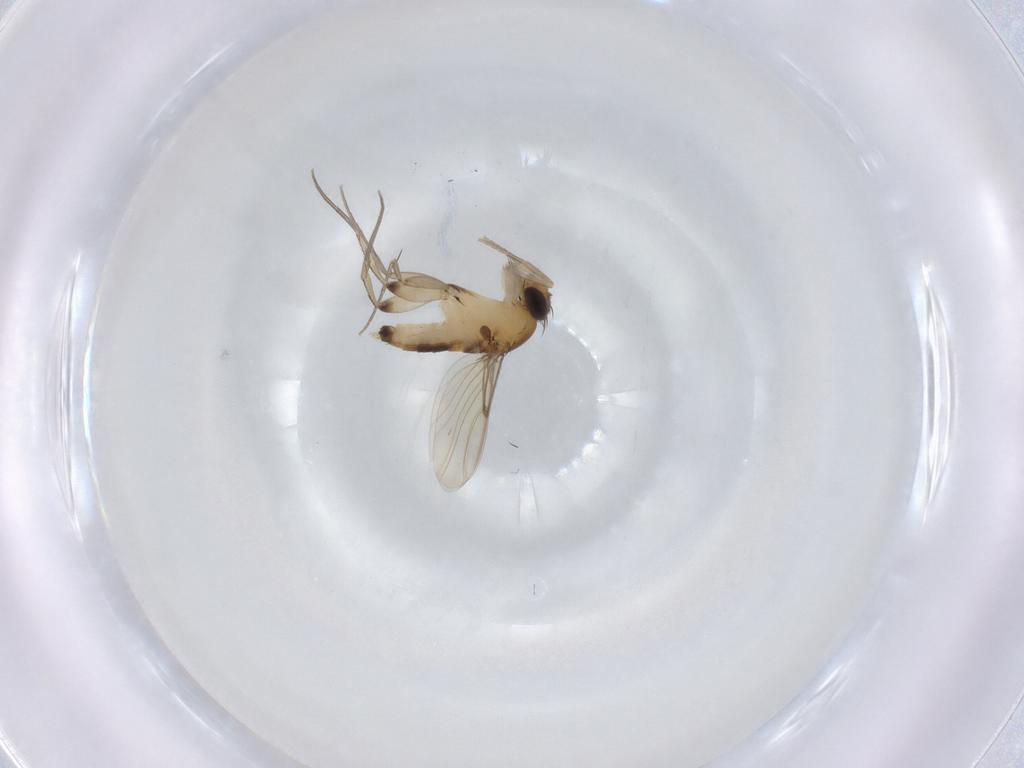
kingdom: Animalia
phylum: Arthropoda
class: Insecta
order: Diptera
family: Phoridae
